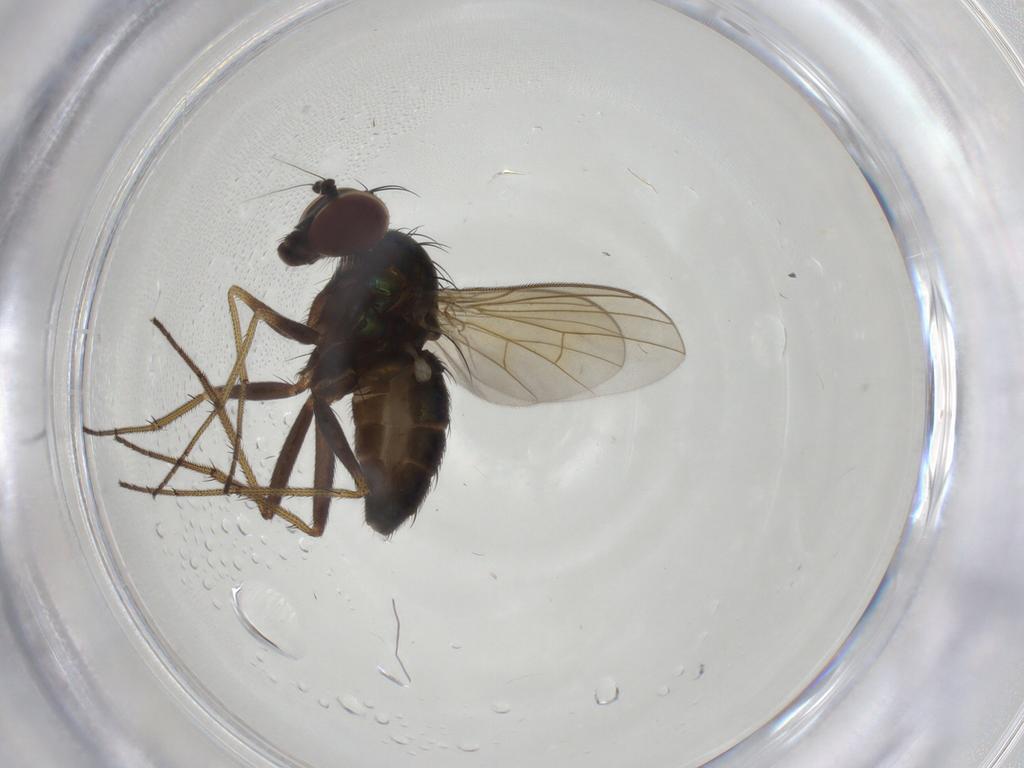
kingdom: Animalia
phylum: Arthropoda
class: Insecta
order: Diptera
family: Dolichopodidae
